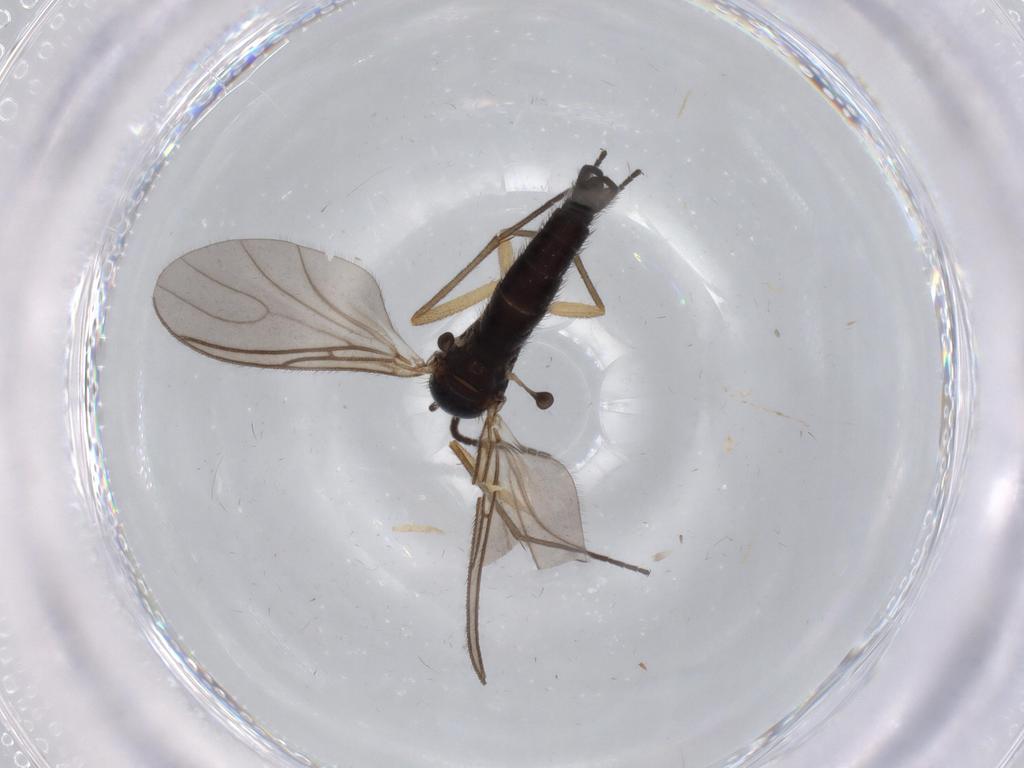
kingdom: Animalia
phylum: Arthropoda
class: Insecta
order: Diptera
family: Sciaridae
